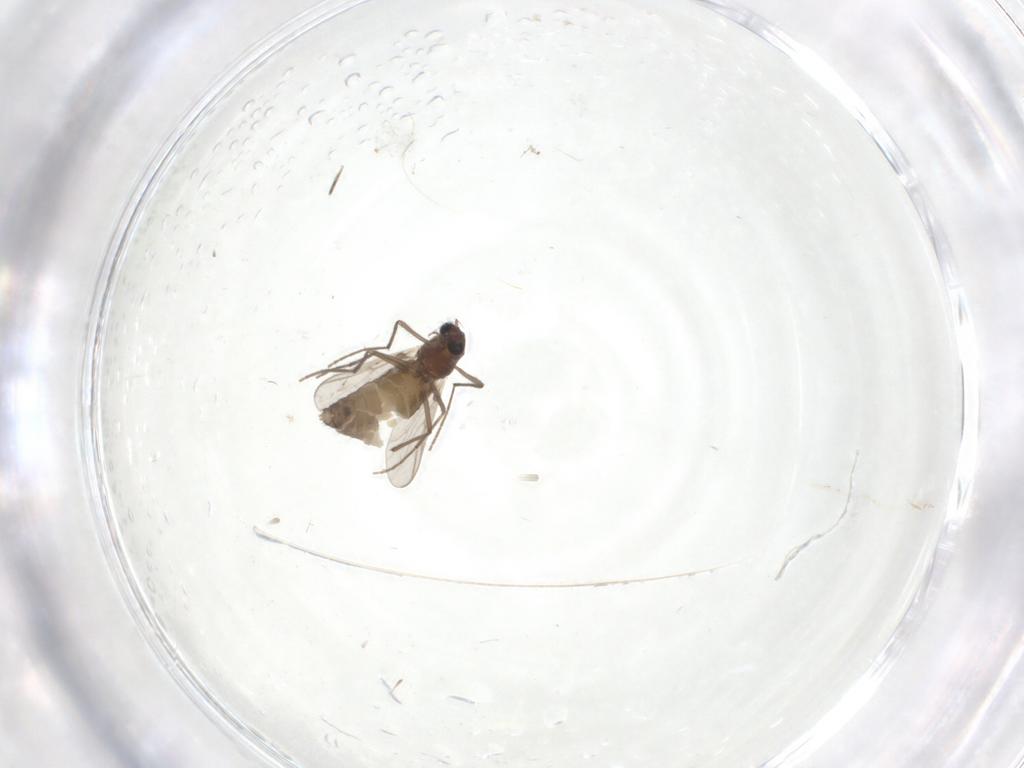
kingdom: Animalia
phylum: Arthropoda
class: Insecta
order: Diptera
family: Chironomidae
